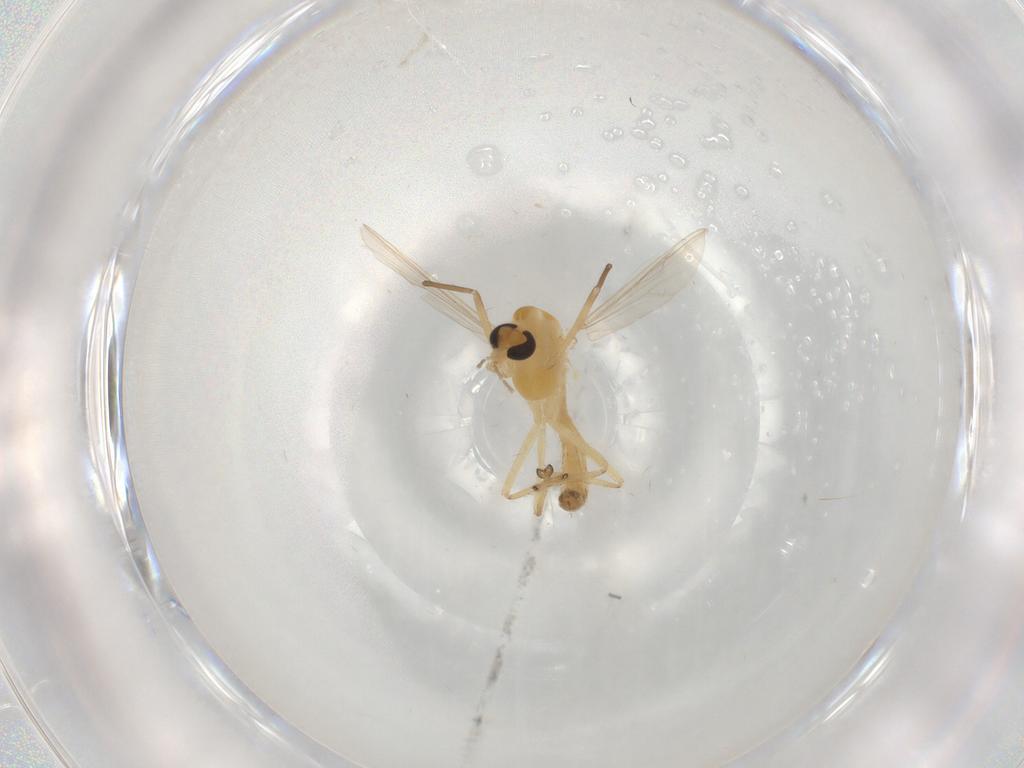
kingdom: Animalia
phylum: Arthropoda
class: Insecta
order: Diptera
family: Chironomidae
